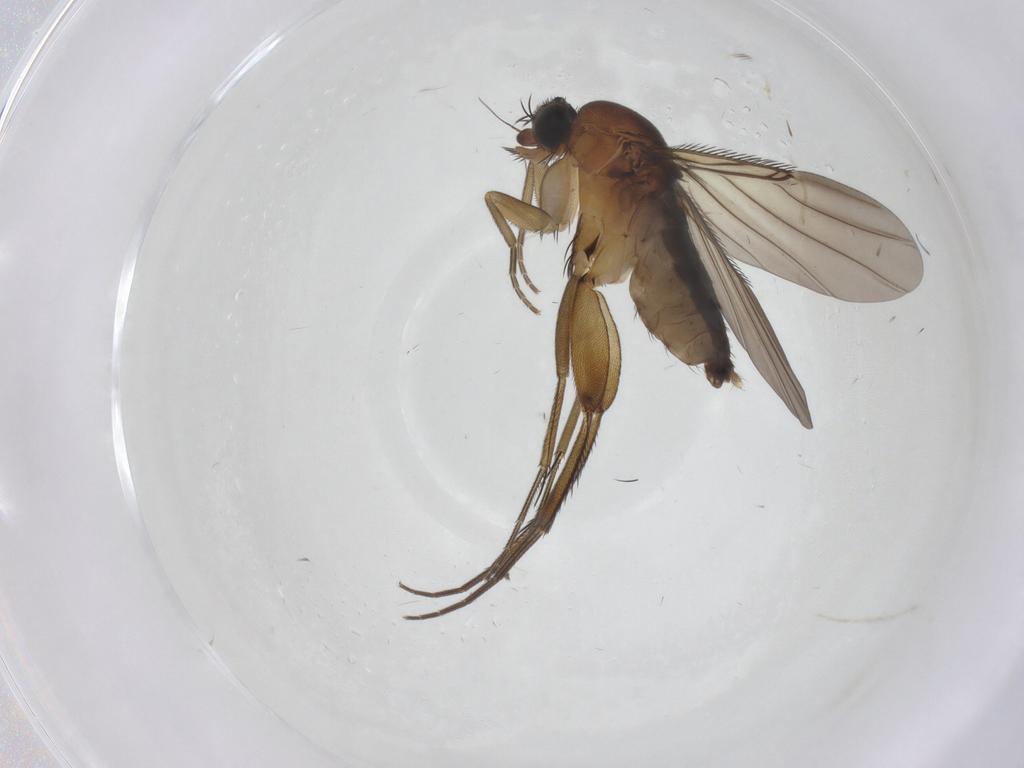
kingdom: Animalia
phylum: Arthropoda
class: Insecta
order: Diptera
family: Phoridae
